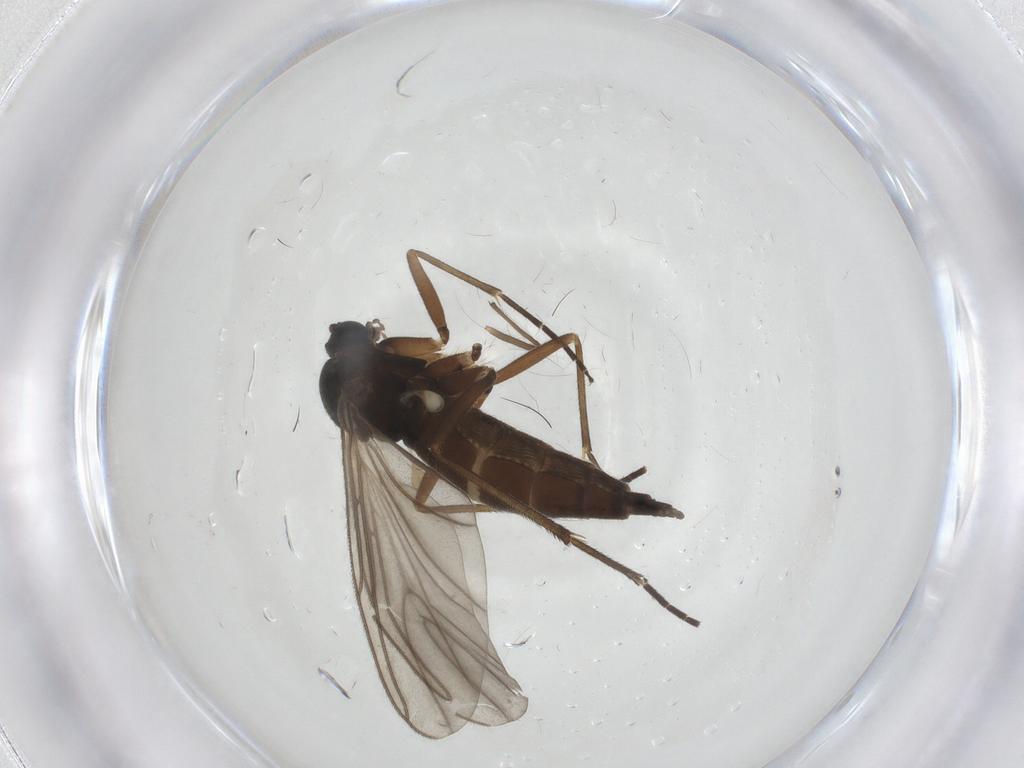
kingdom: Animalia
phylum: Arthropoda
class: Insecta
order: Diptera
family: Sciaridae
